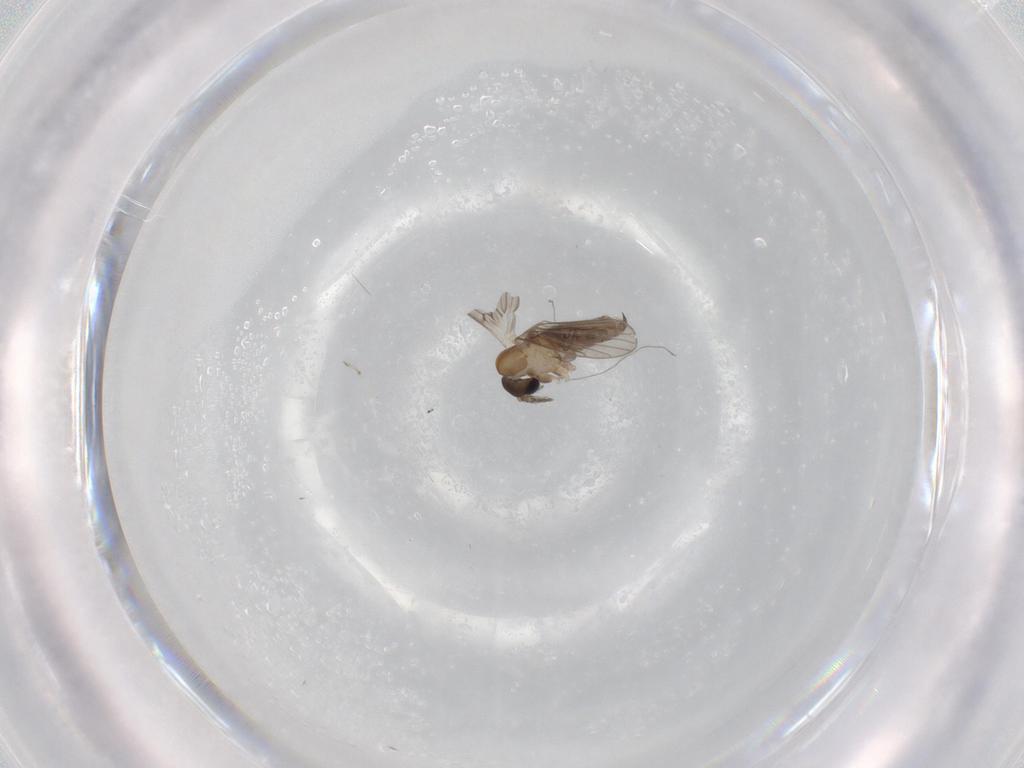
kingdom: Animalia
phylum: Arthropoda
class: Insecta
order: Diptera
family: Psychodidae
